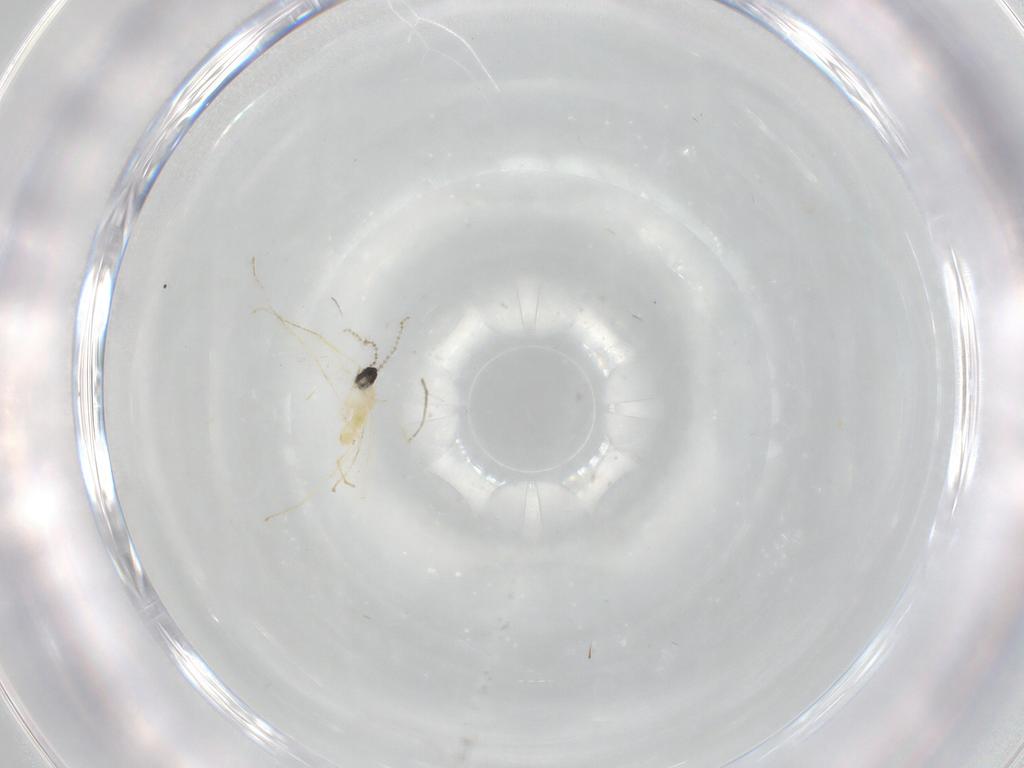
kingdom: Animalia
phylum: Arthropoda
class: Insecta
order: Diptera
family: Cecidomyiidae
